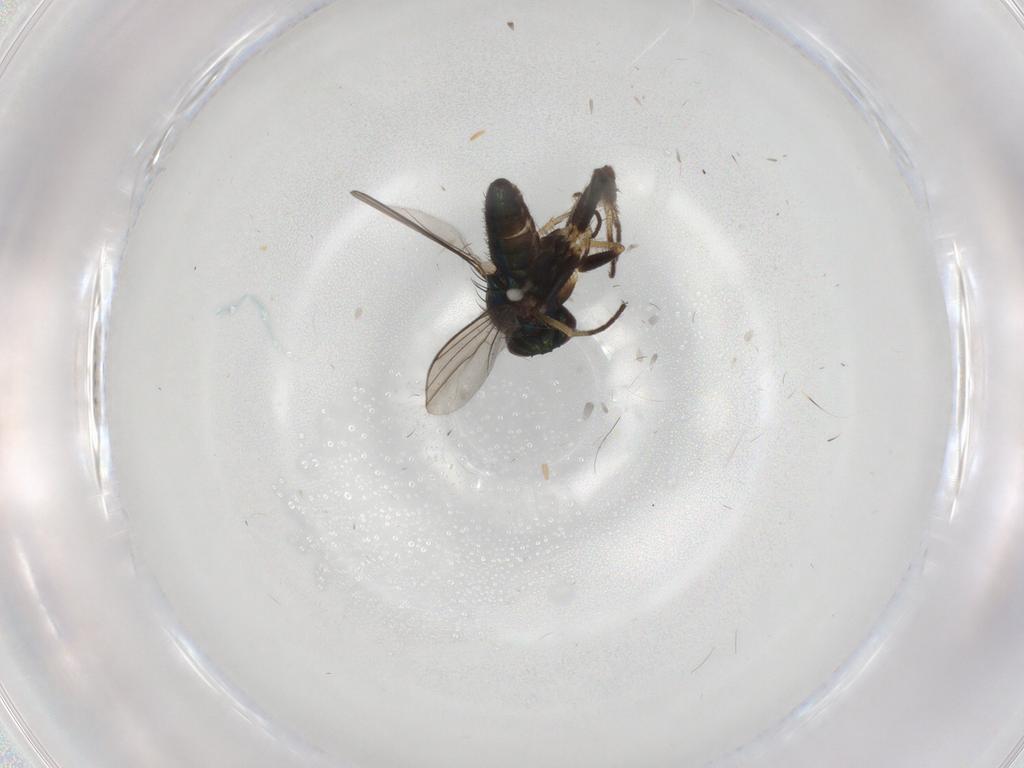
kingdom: Animalia
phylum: Arthropoda
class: Insecta
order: Diptera
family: Dolichopodidae
